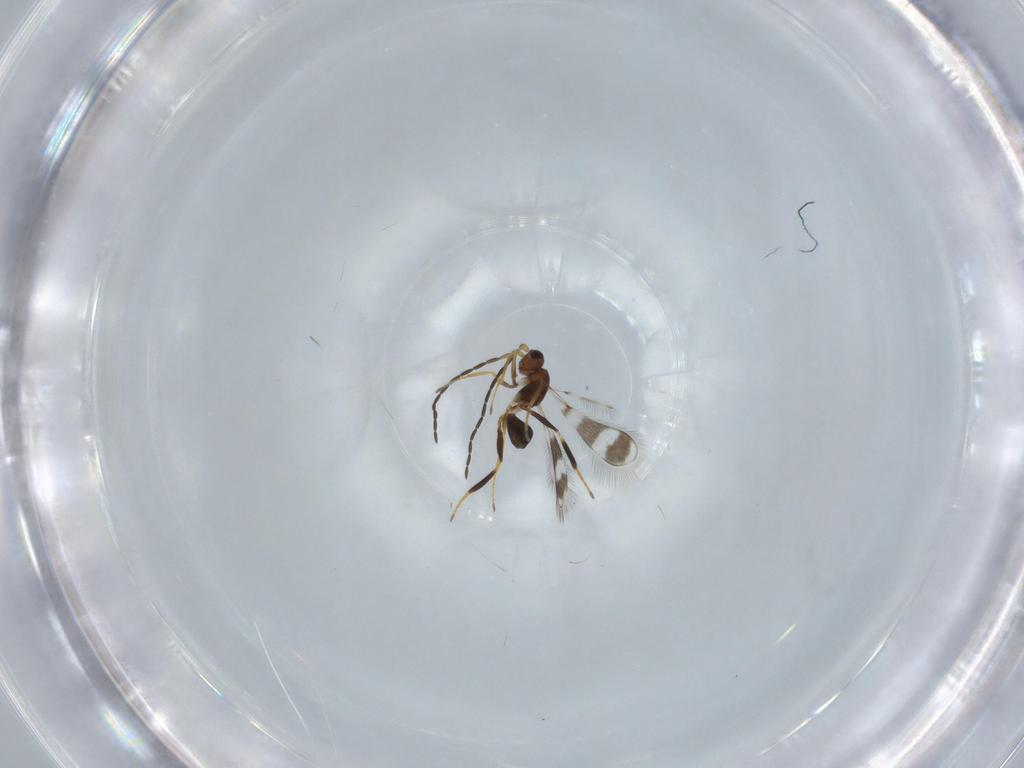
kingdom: Animalia
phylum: Arthropoda
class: Insecta
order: Hymenoptera
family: Mymaridae
